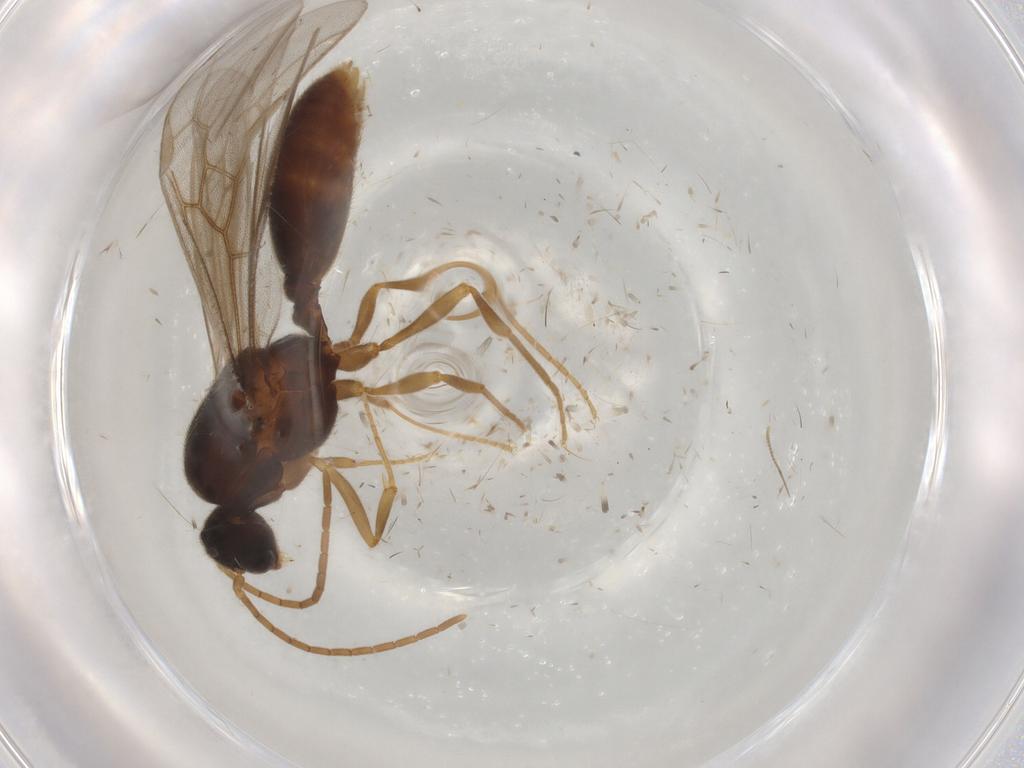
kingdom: Animalia
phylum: Arthropoda
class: Insecta
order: Hymenoptera
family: Formicidae
